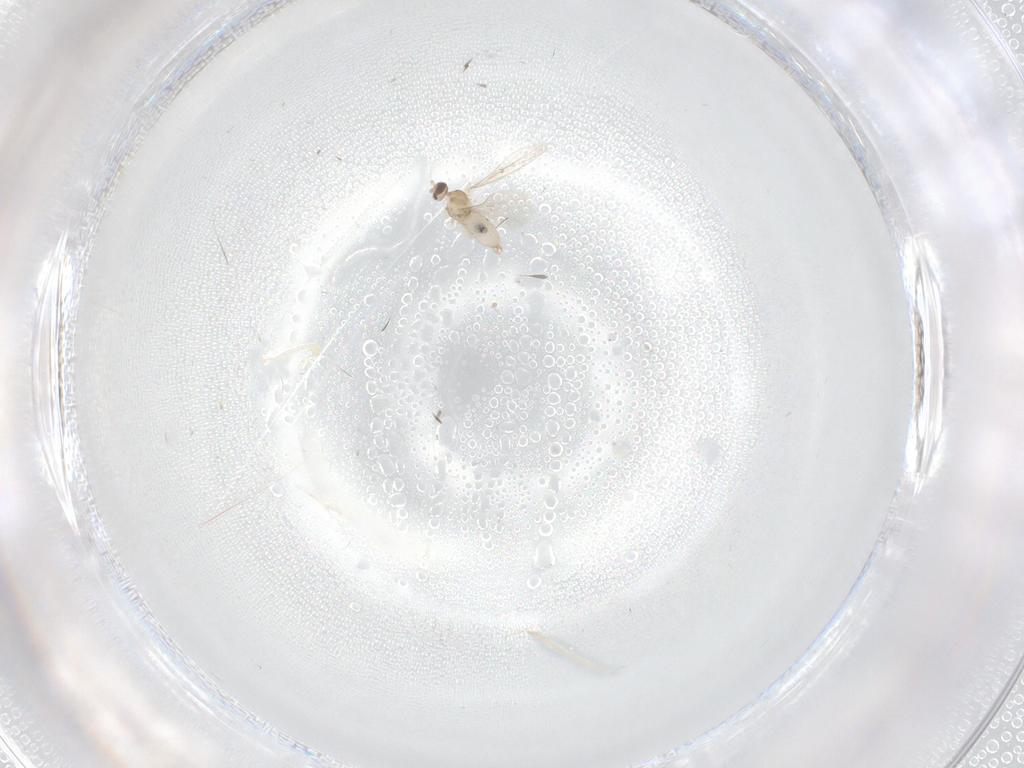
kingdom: Animalia
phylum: Arthropoda
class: Insecta
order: Diptera
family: Cecidomyiidae
